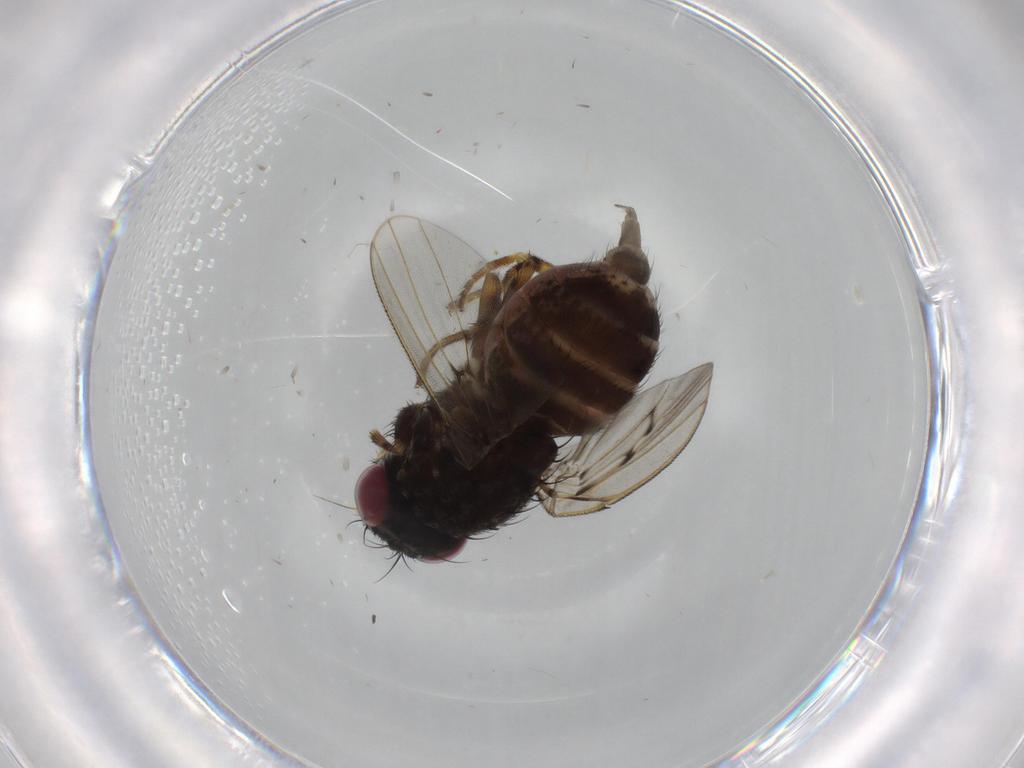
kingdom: Animalia
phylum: Arthropoda
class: Insecta
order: Diptera
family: Odiniidae
